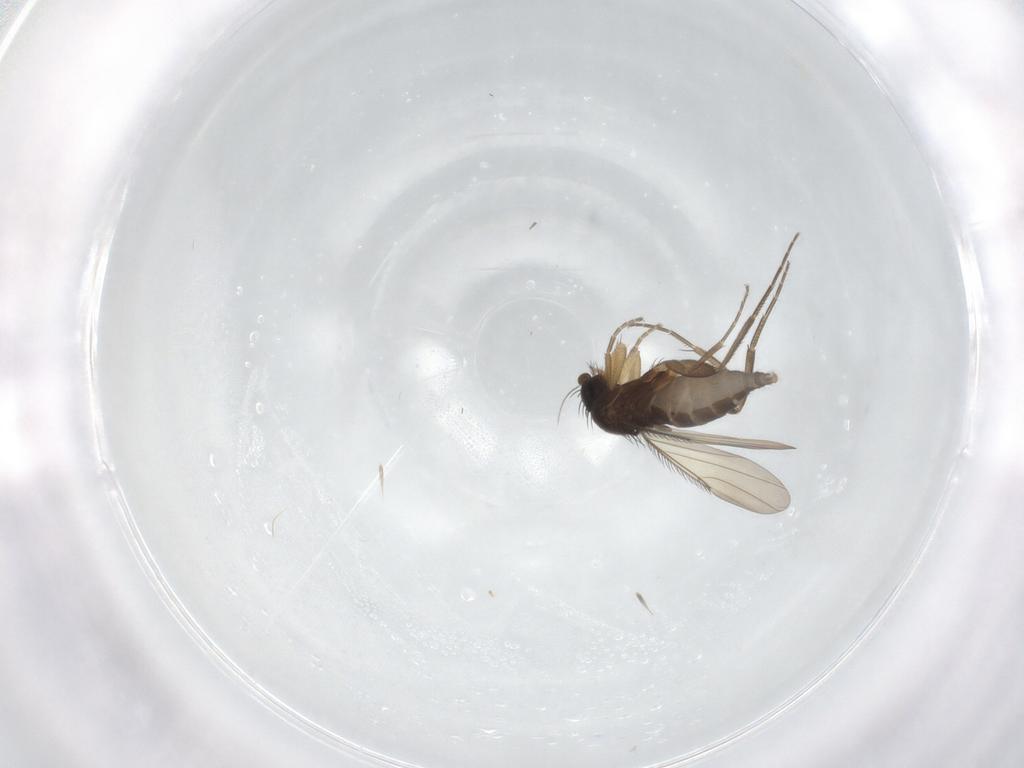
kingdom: Animalia
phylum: Arthropoda
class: Insecta
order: Diptera
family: Phoridae
